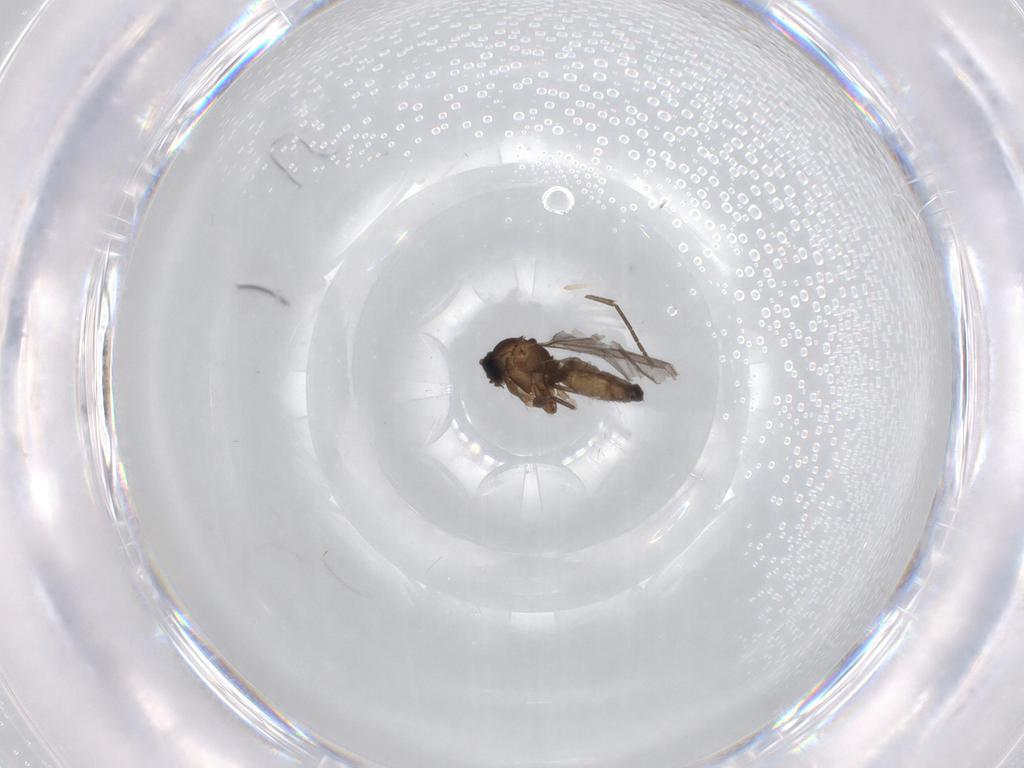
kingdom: Animalia
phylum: Arthropoda
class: Insecta
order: Diptera
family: Sciaridae
